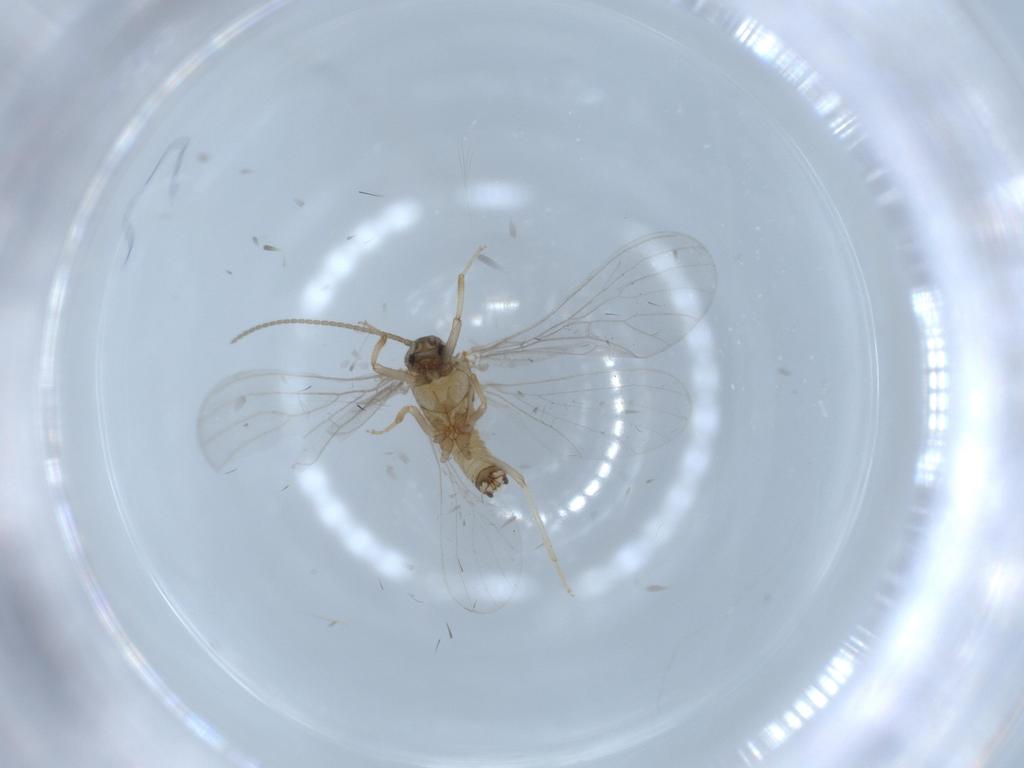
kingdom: Animalia
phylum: Arthropoda
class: Insecta
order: Neuroptera
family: Coniopterygidae
